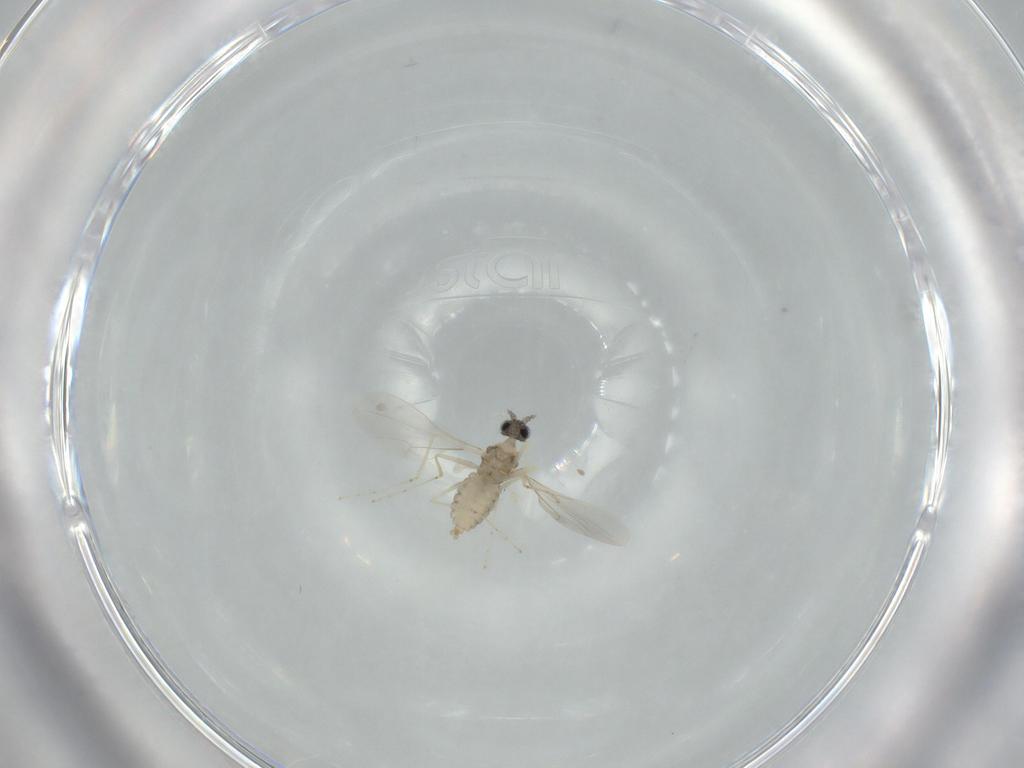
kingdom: Animalia
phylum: Arthropoda
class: Insecta
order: Diptera
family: Cecidomyiidae
